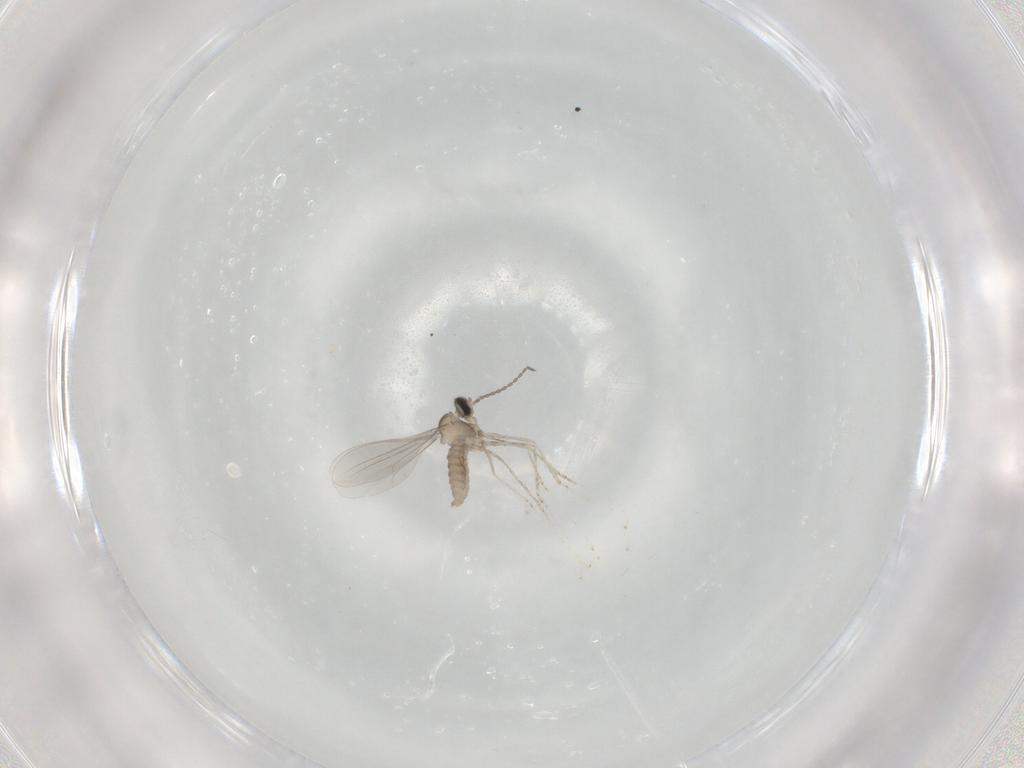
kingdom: Animalia
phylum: Arthropoda
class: Insecta
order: Diptera
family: Cecidomyiidae
